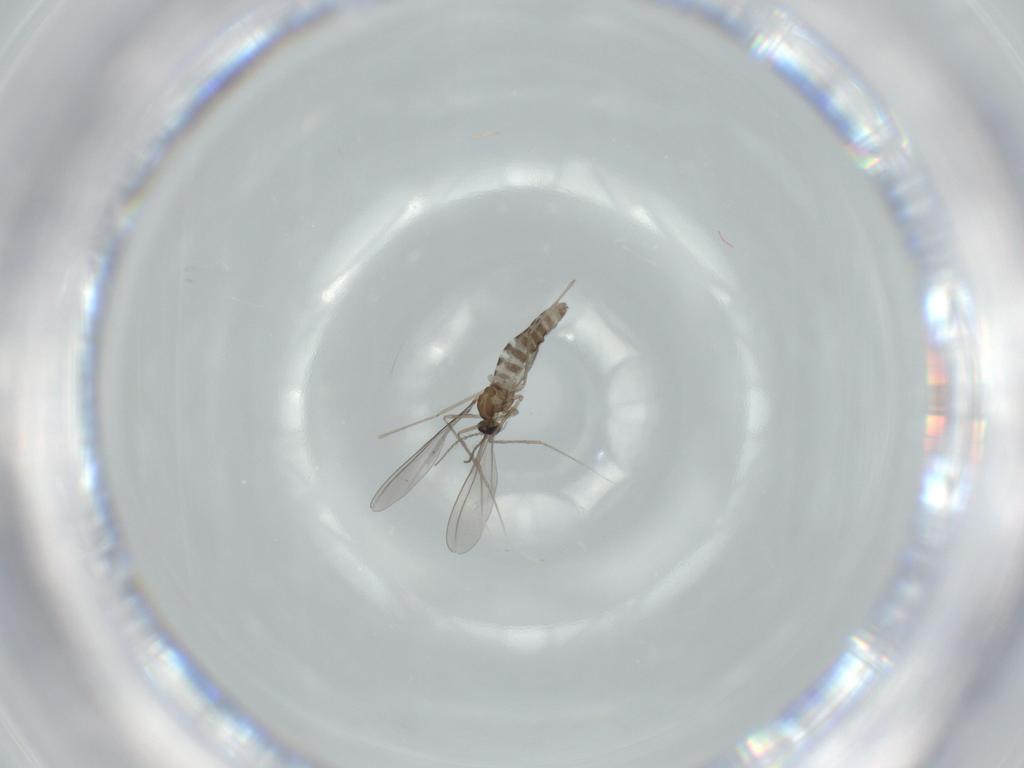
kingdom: Animalia
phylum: Arthropoda
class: Insecta
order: Diptera
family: Cecidomyiidae
